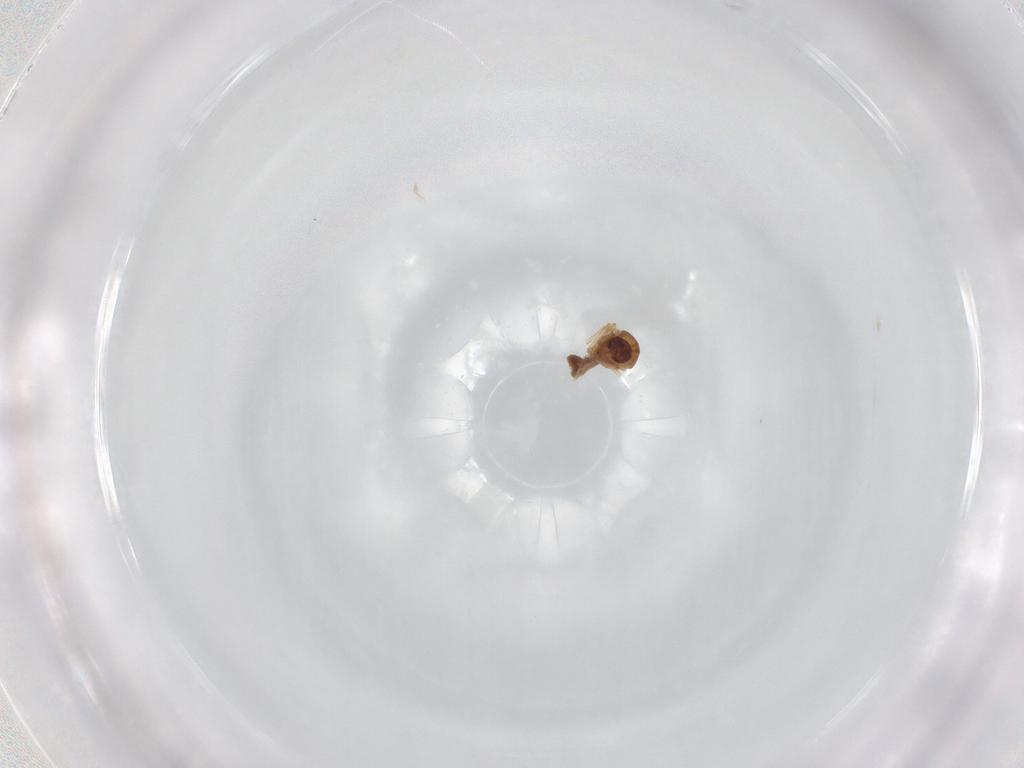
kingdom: Animalia
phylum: Arthropoda
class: Insecta
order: Diptera
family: Ceratopogonidae
